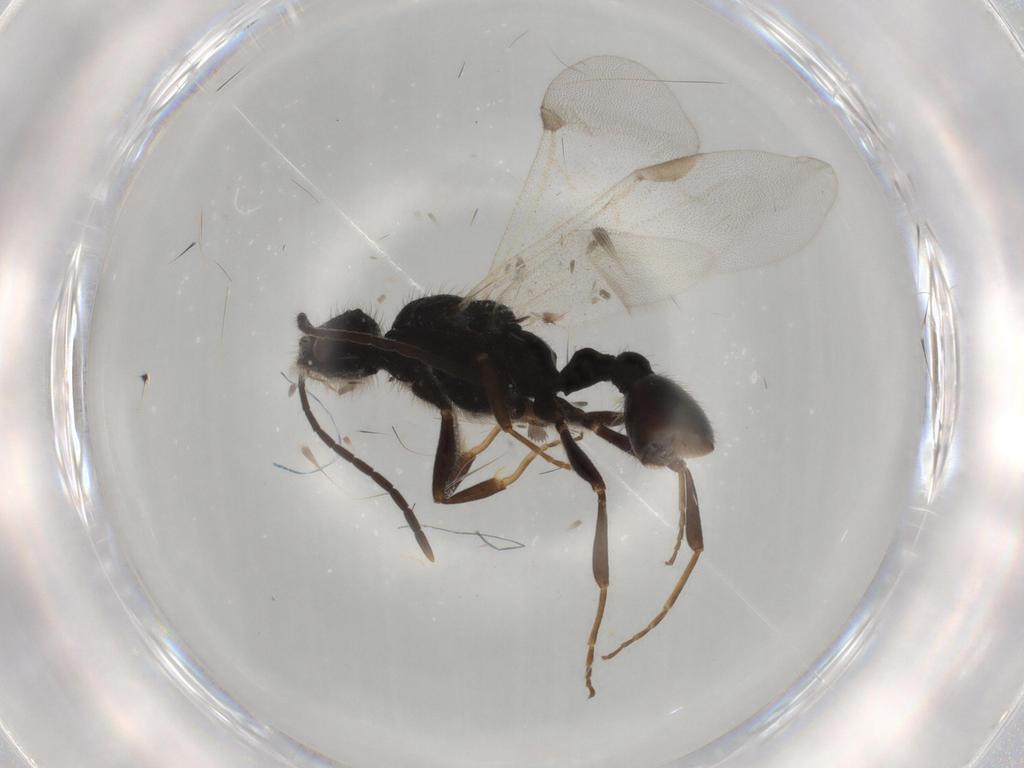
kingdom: Animalia
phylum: Arthropoda
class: Insecta
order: Hymenoptera
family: Formicidae
